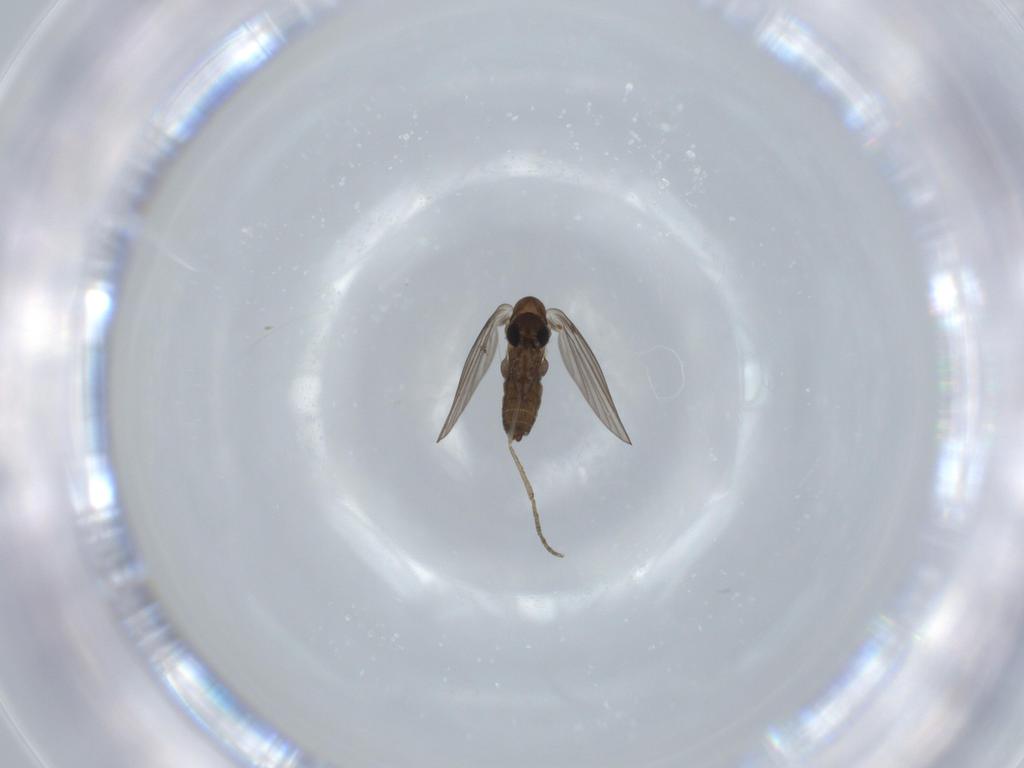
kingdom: Animalia
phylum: Arthropoda
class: Insecta
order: Diptera
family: Psychodidae
